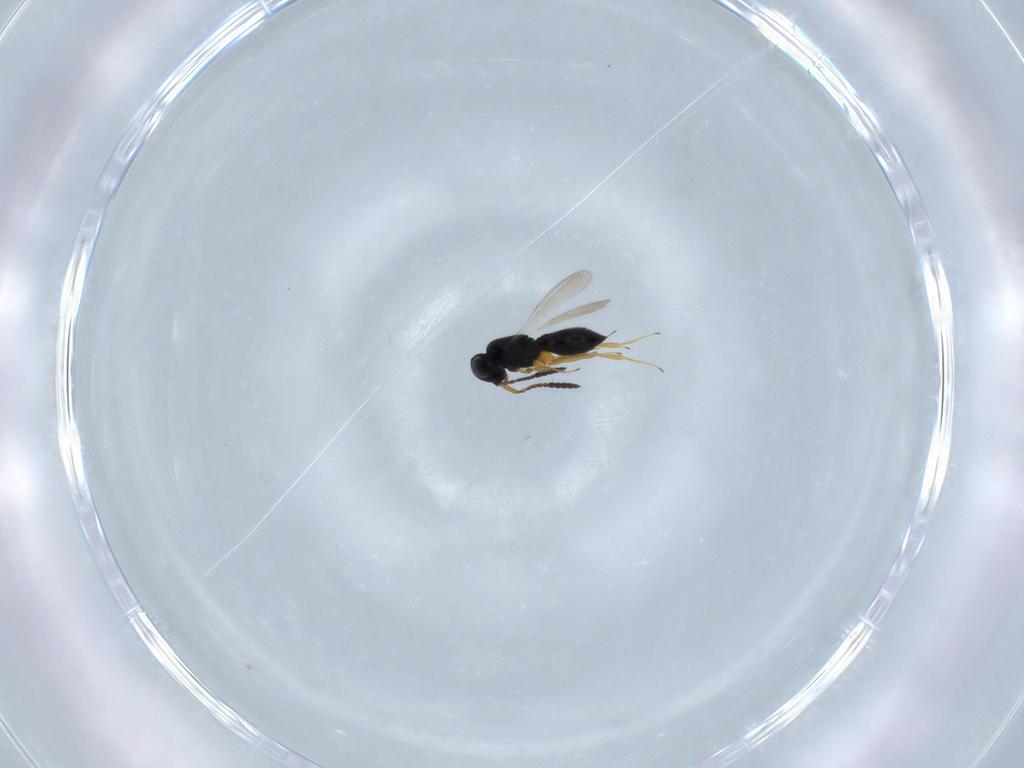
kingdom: Animalia
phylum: Arthropoda
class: Insecta
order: Hymenoptera
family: Scelionidae
